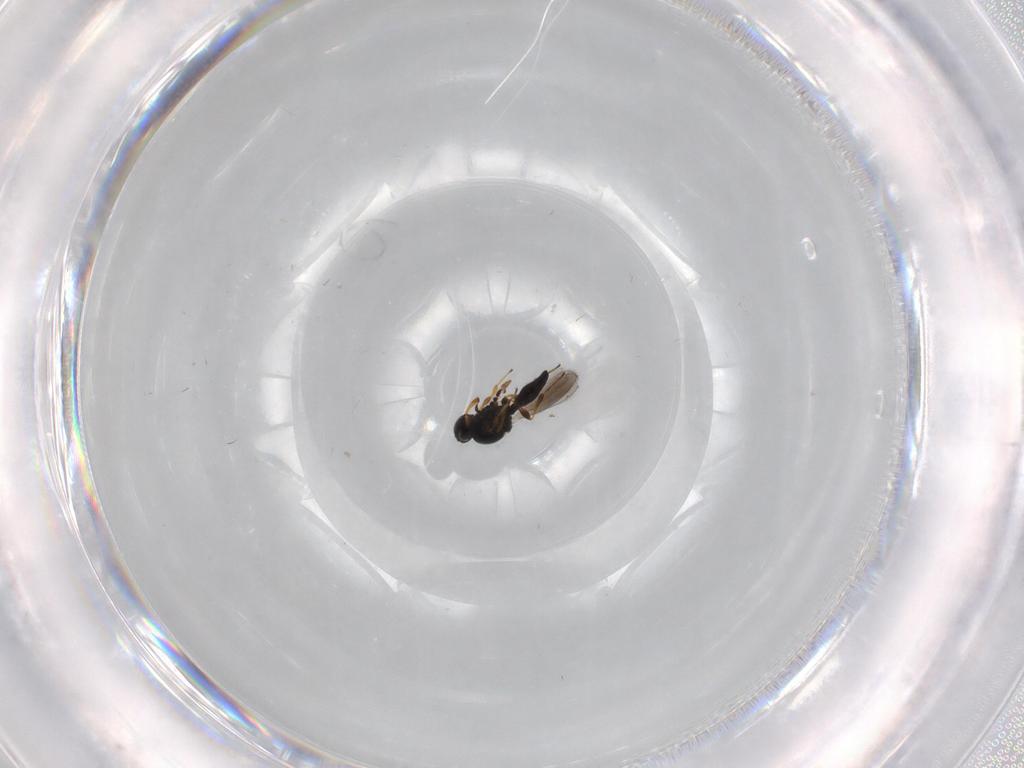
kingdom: Animalia
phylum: Arthropoda
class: Insecta
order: Hymenoptera
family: Platygastridae
